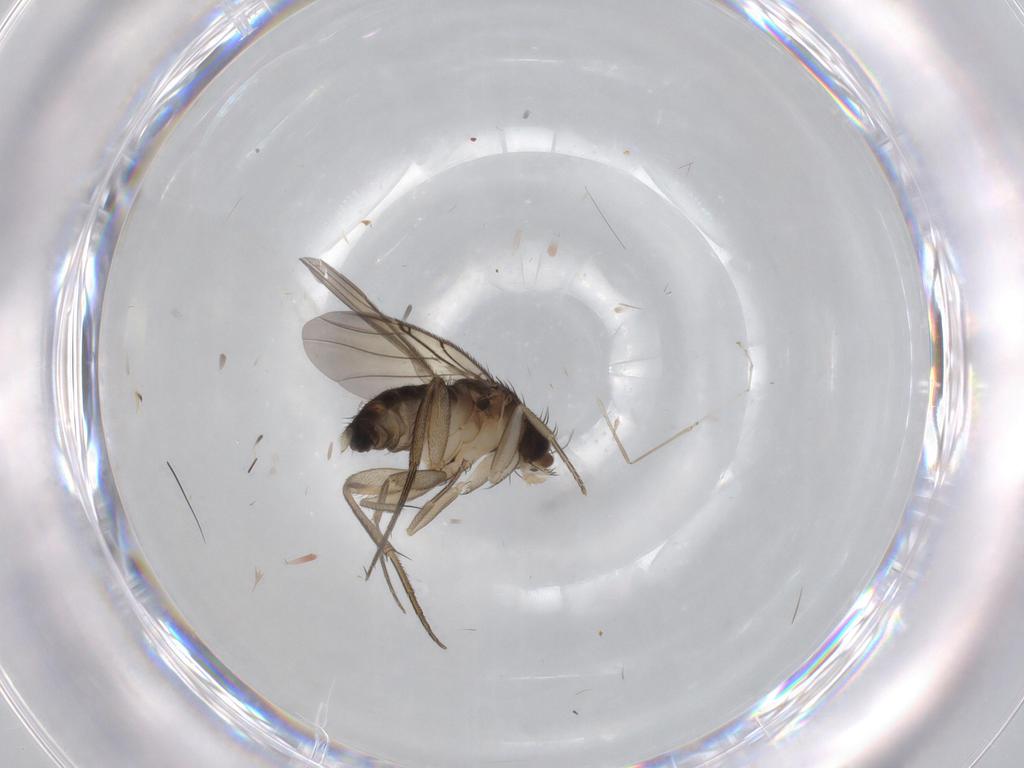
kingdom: Animalia
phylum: Arthropoda
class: Insecta
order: Diptera
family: Phoridae
